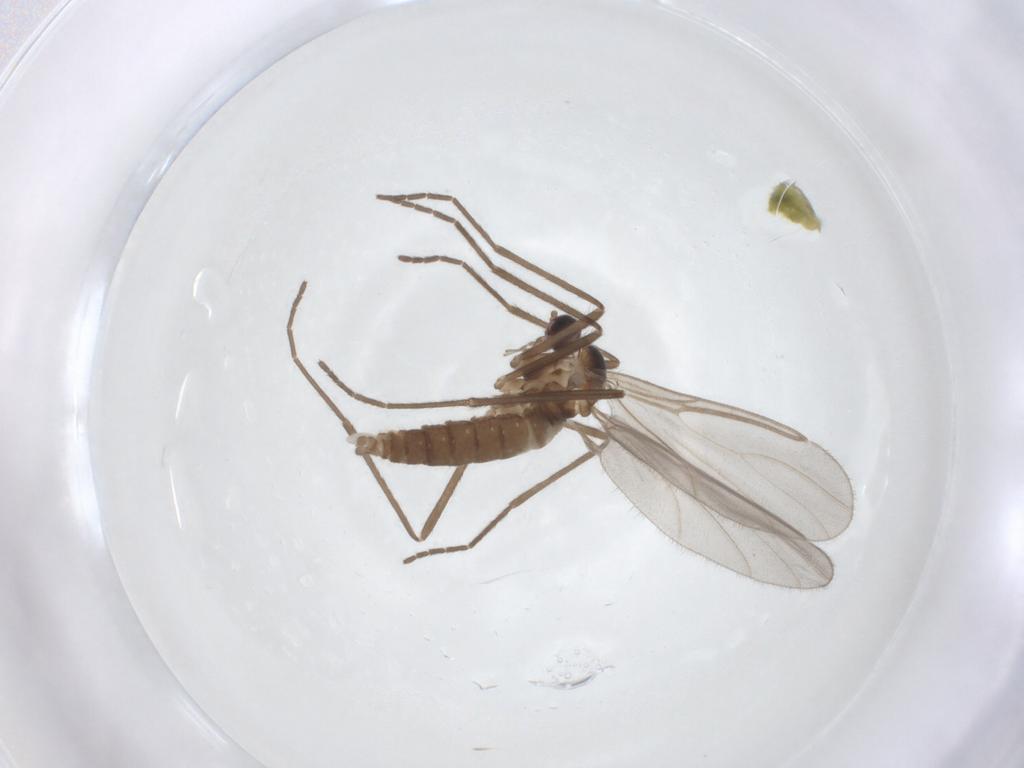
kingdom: Animalia
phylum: Arthropoda
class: Insecta
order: Diptera
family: Cecidomyiidae
